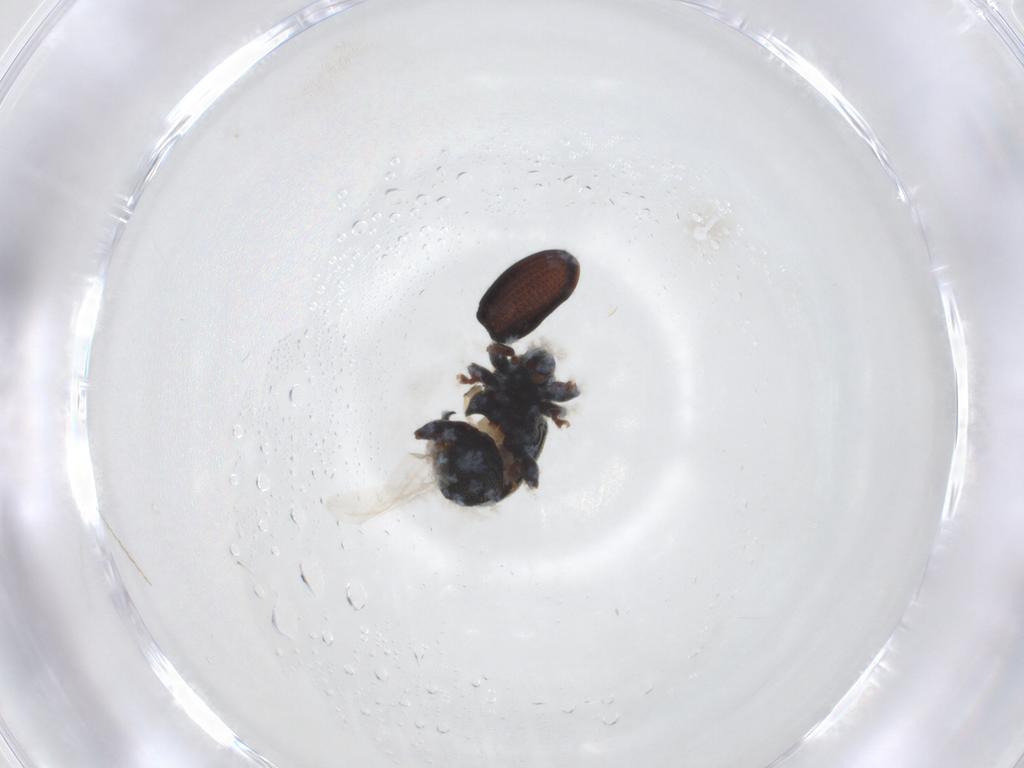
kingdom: Animalia
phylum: Arthropoda
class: Insecta
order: Coleoptera
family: Curculionidae
